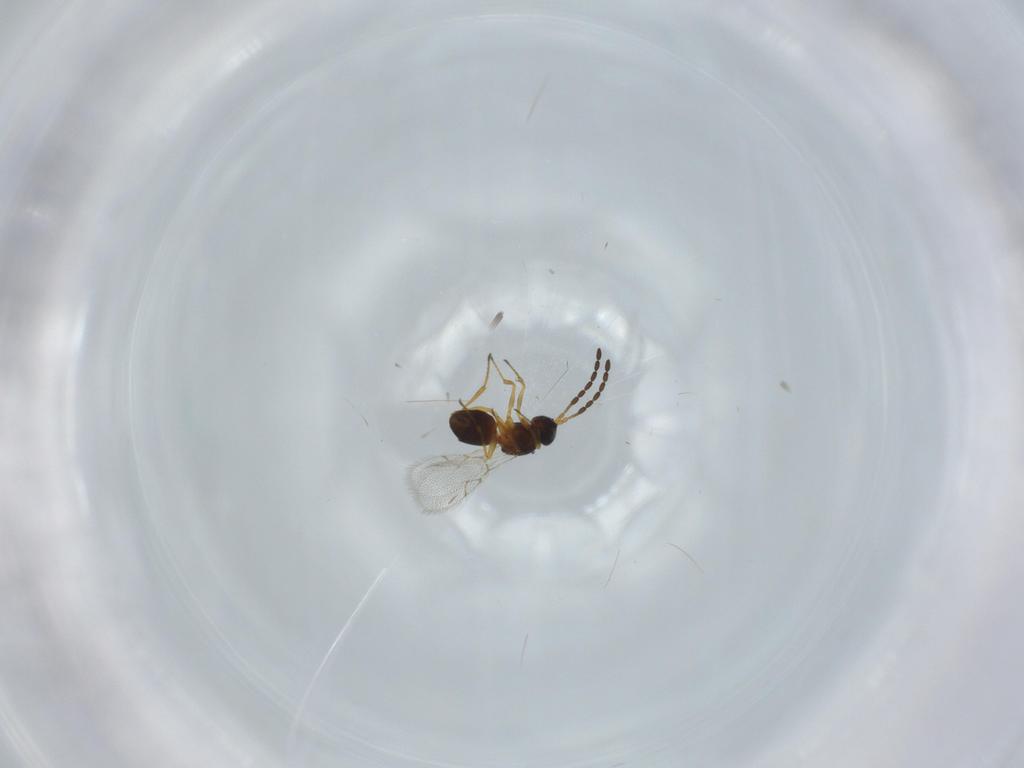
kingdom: Animalia
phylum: Arthropoda
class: Insecta
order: Hymenoptera
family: Figitidae
